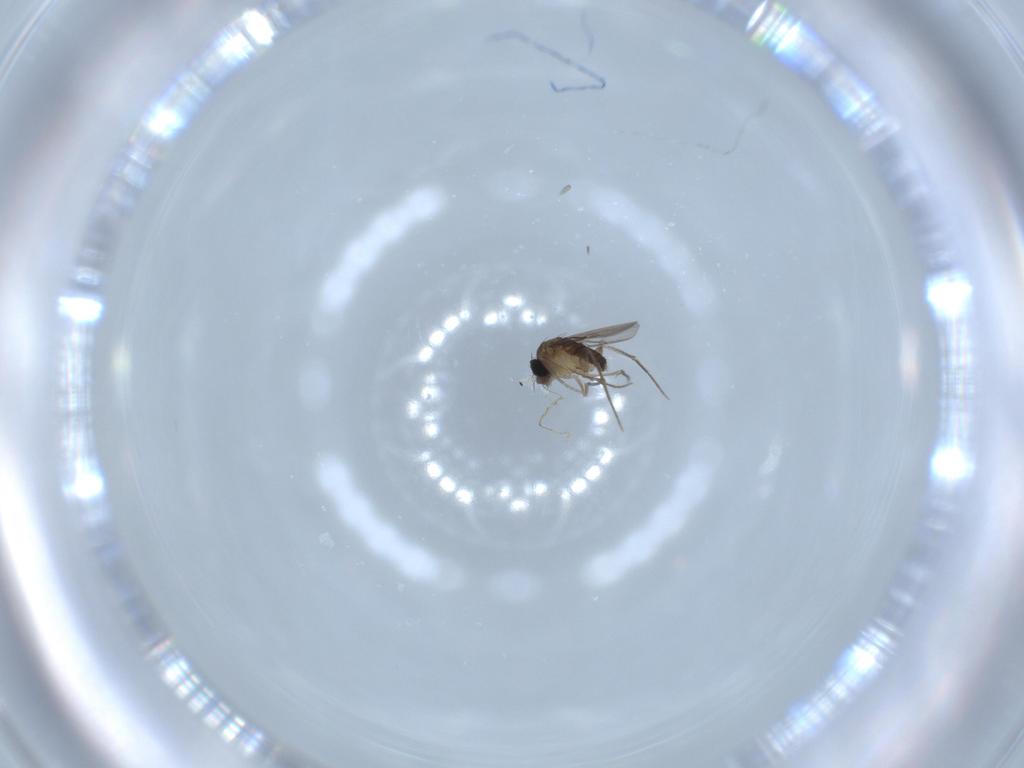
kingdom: Animalia
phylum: Arthropoda
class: Insecta
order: Diptera
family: Phoridae
